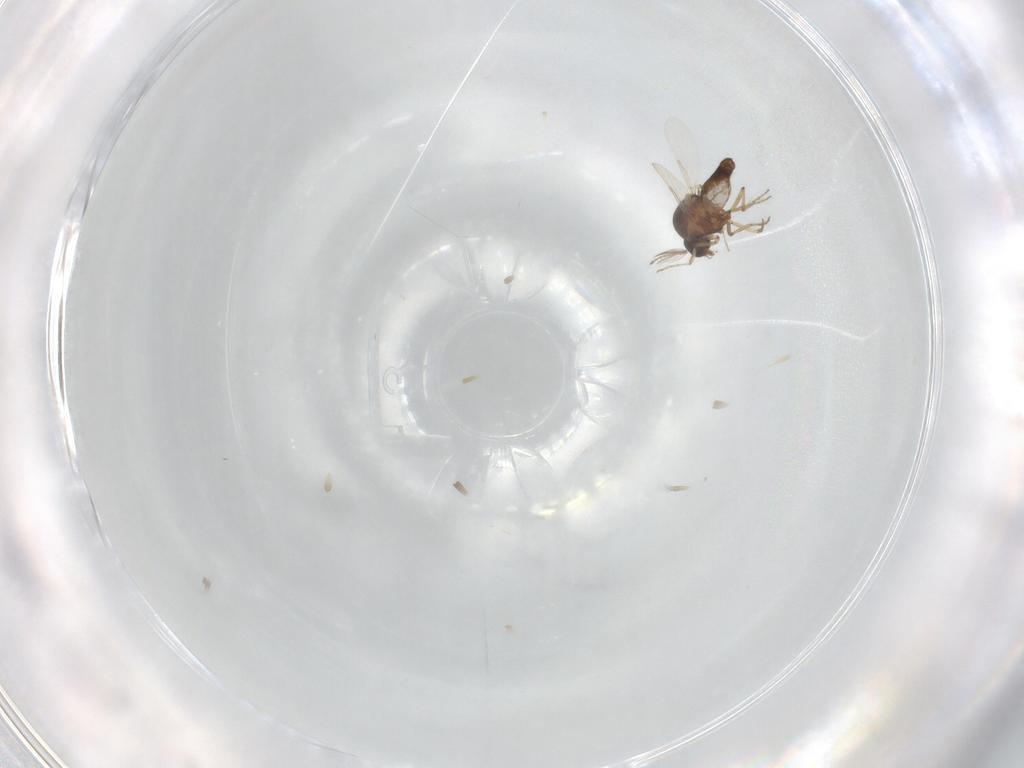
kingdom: Animalia
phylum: Arthropoda
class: Insecta
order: Diptera
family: Ceratopogonidae
